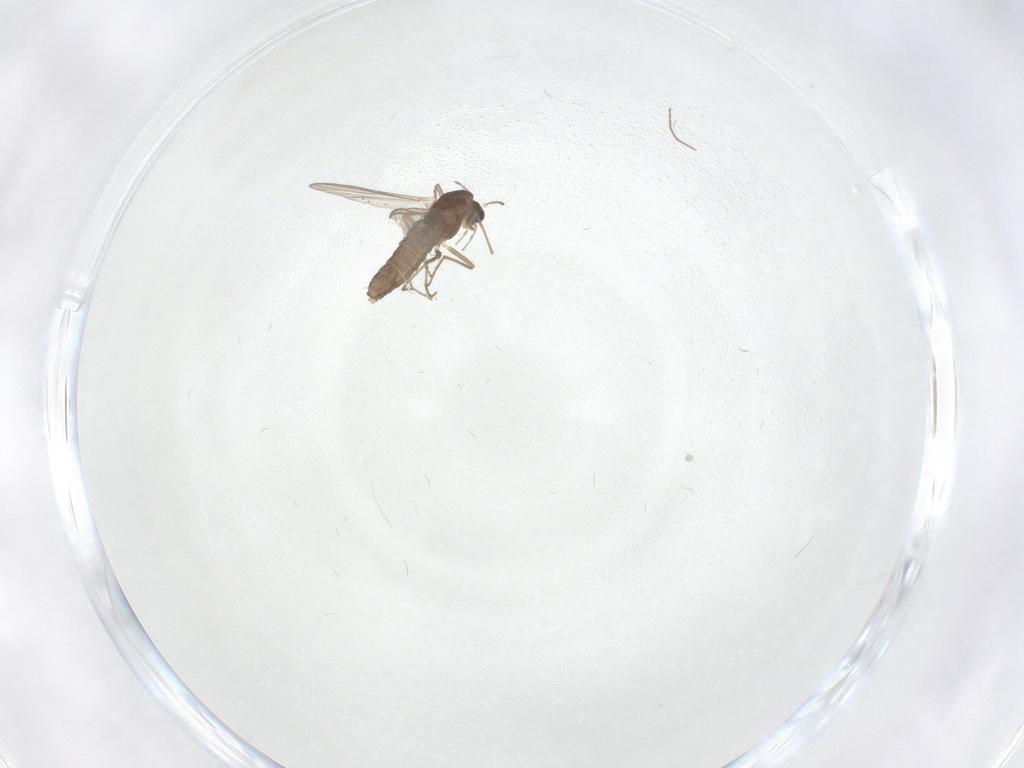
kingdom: Animalia
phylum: Arthropoda
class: Insecta
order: Diptera
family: Chironomidae
